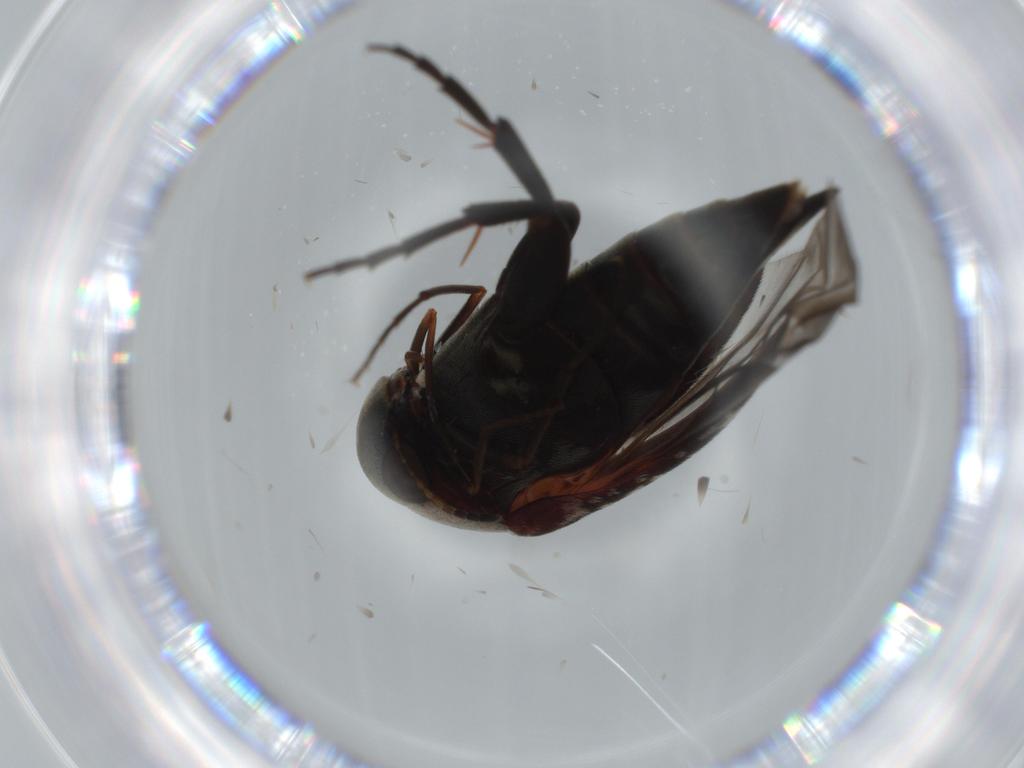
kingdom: Animalia
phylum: Arthropoda
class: Insecta
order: Coleoptera
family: Mordellidae
